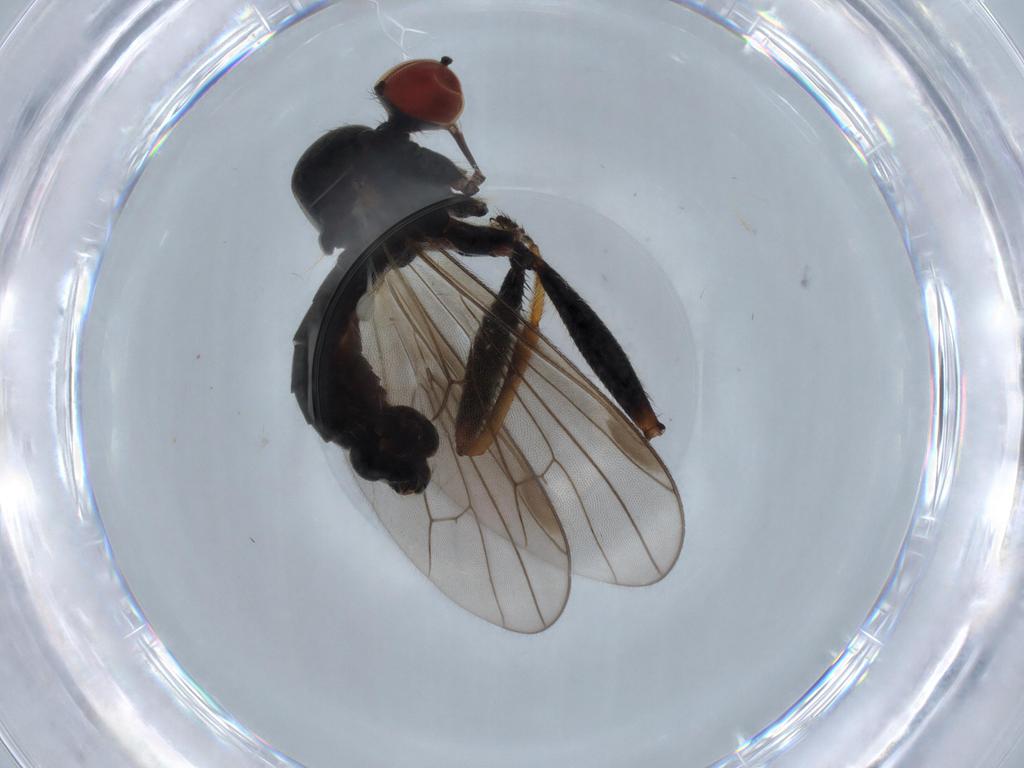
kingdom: Animalia
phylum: Arthropoda
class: Insecta
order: Diptera
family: Hybotidae
